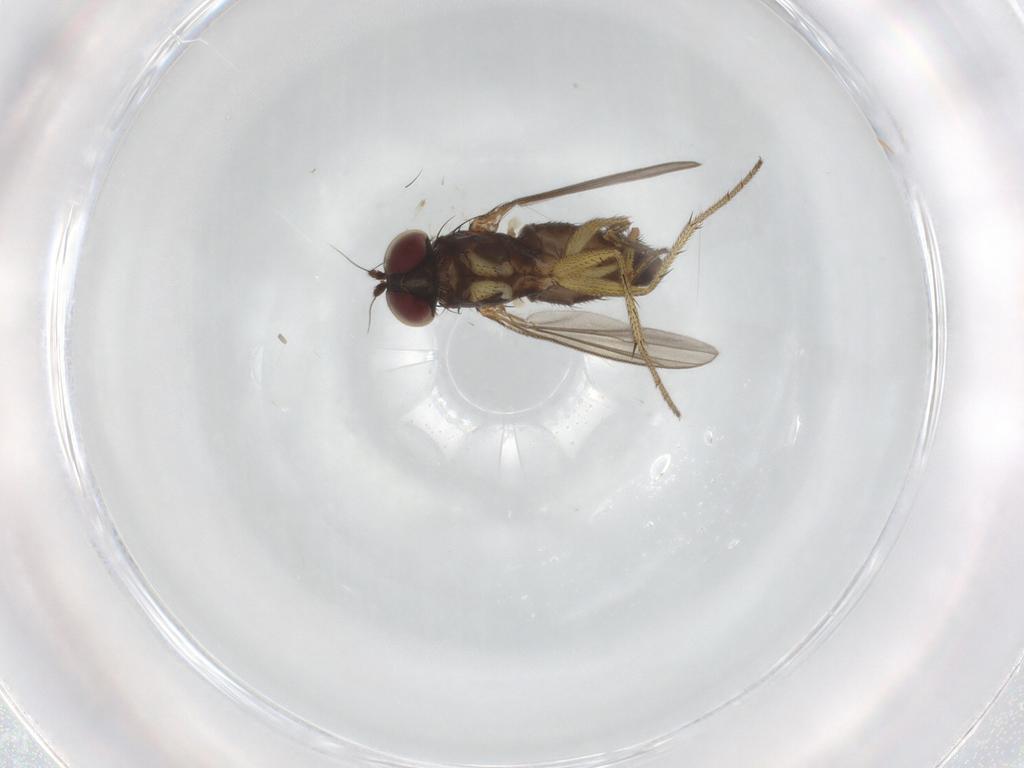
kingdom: Animalia
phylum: Arthropoda
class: Insecta
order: Diptera
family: Dolichopodidae
